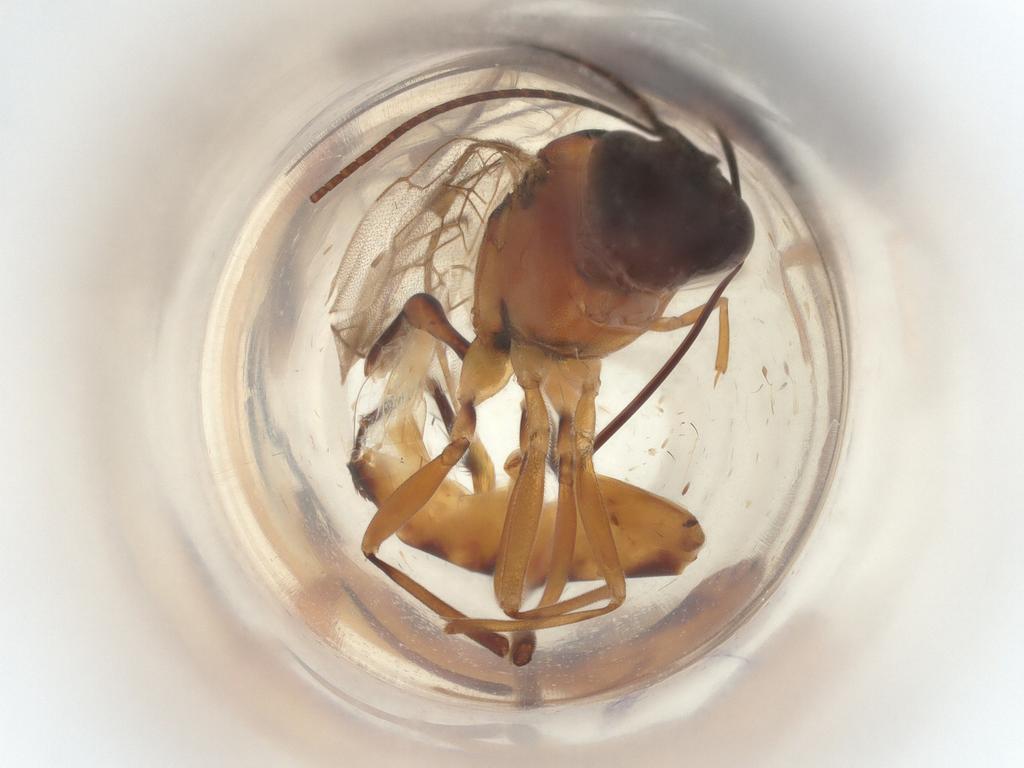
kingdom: Animalia
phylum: Arthropoda
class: Insecta
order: Hymenoptera
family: Ichneumonidae
